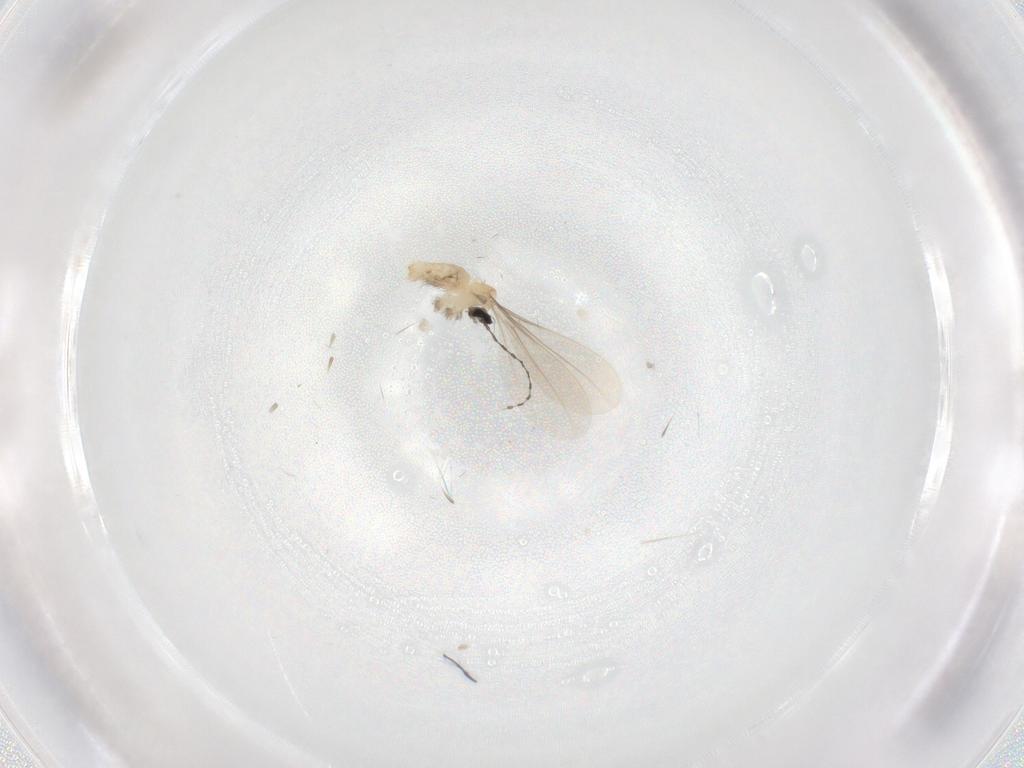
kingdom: Animalia
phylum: Arthropoda
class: Insecta
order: Diptera
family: Cecidomyiidae
